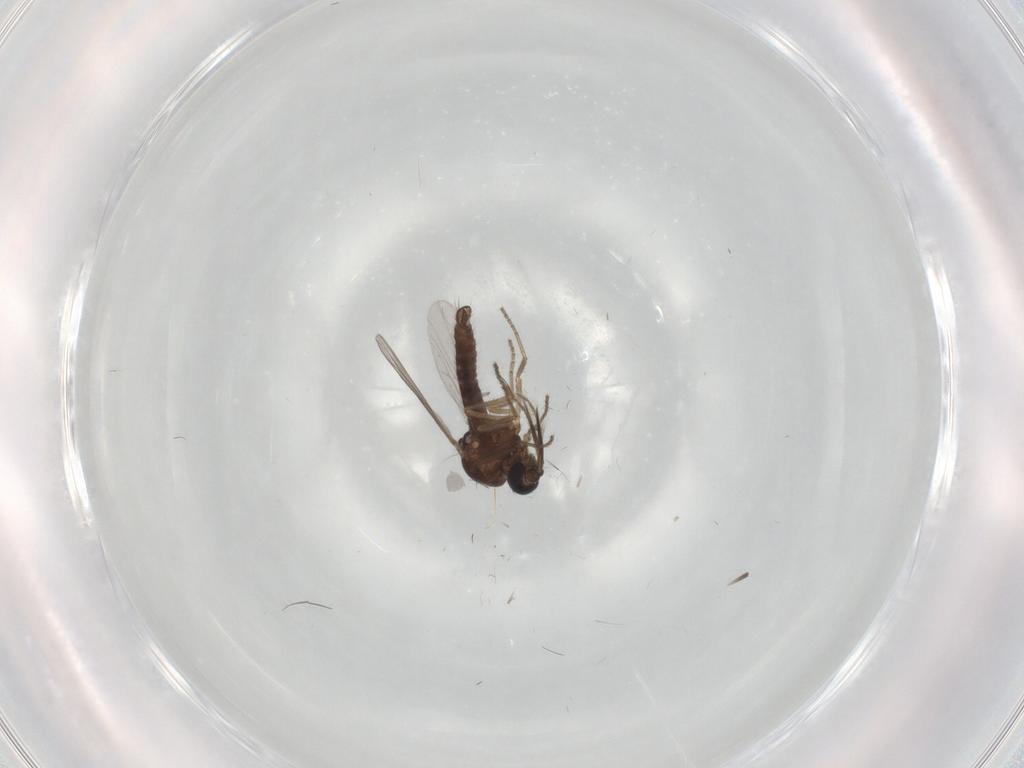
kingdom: Animalia
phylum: Arthropoda
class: Insecta
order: Diptera
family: Ceratopogonidae
